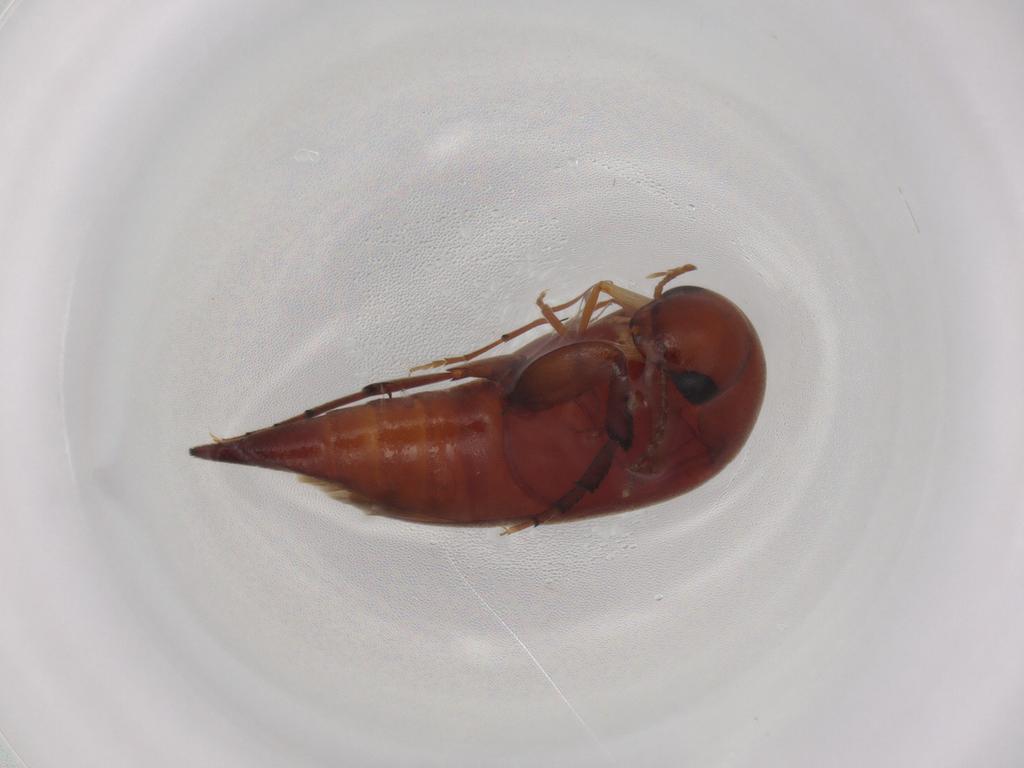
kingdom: Animalia
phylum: Arthropoda
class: Insecta
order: Coleoptera
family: Mordellidae
